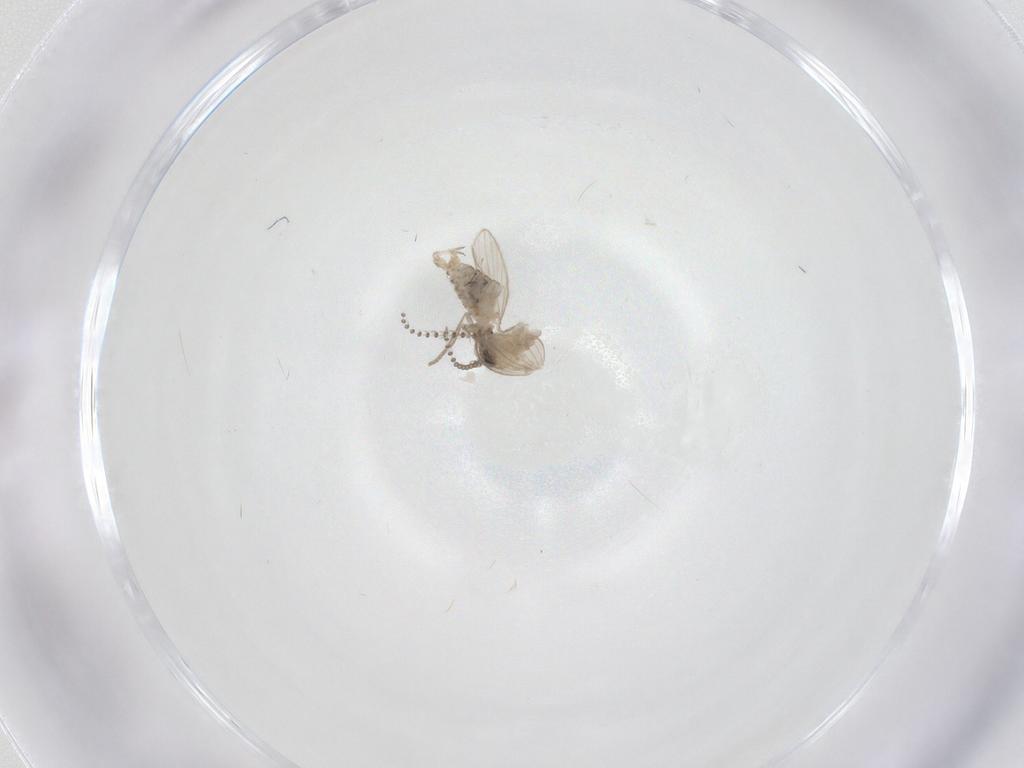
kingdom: Animalia
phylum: Arthropoda
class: Insecta
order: Diptera
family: Psychodidae
